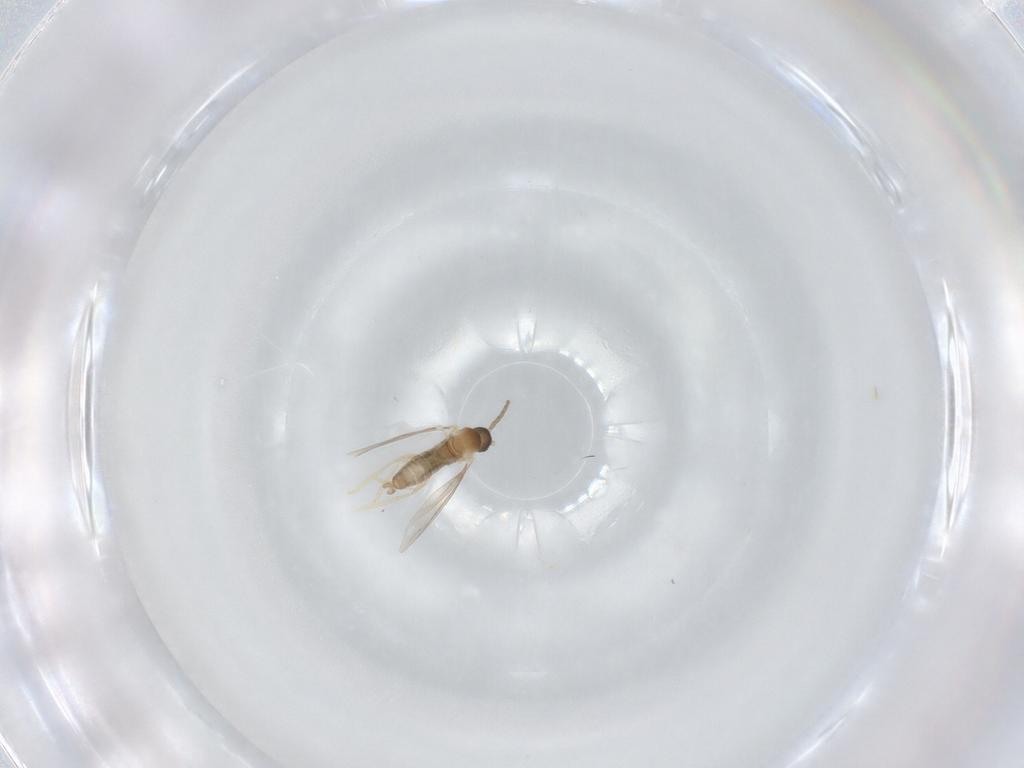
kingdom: Animalia
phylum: Arthropoda
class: Insecta
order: Diptera
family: Cecidomyiidae
